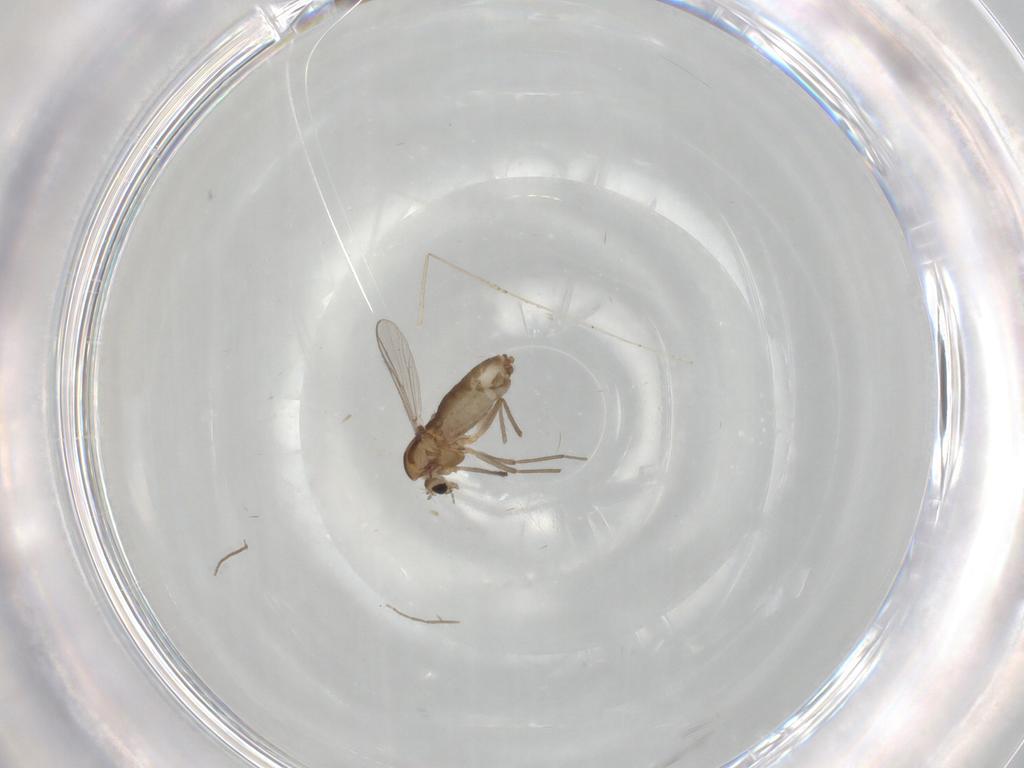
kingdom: Animalia
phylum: Arthropoda
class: Insecta
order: Diptera
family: Chironomidae
